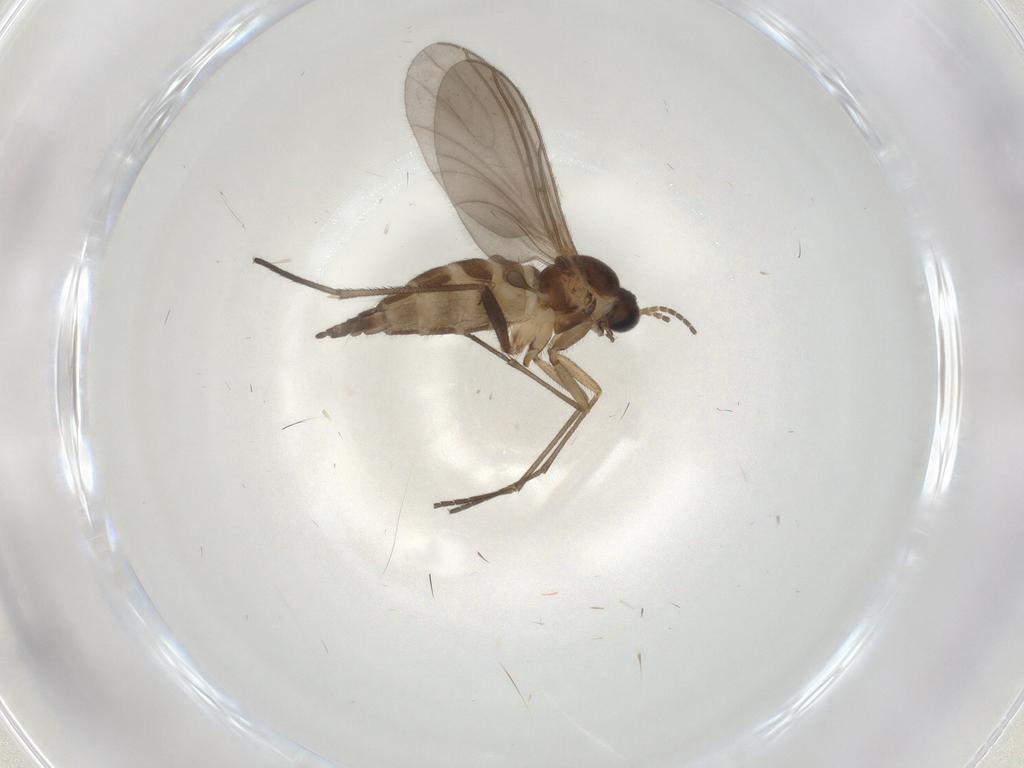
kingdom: Animalia
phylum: Arthropoda
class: Insecta
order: Diptera
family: Sciaridae
